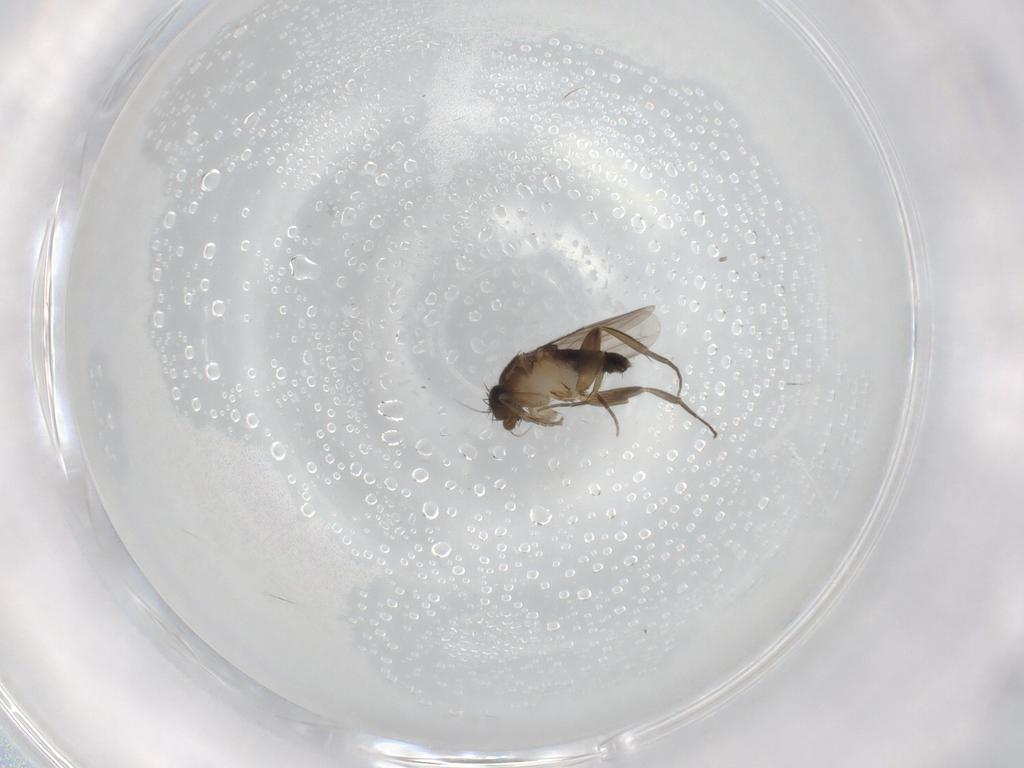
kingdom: Animalia
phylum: Arthropoda
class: Insecta
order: Diptera
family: Phoridae
